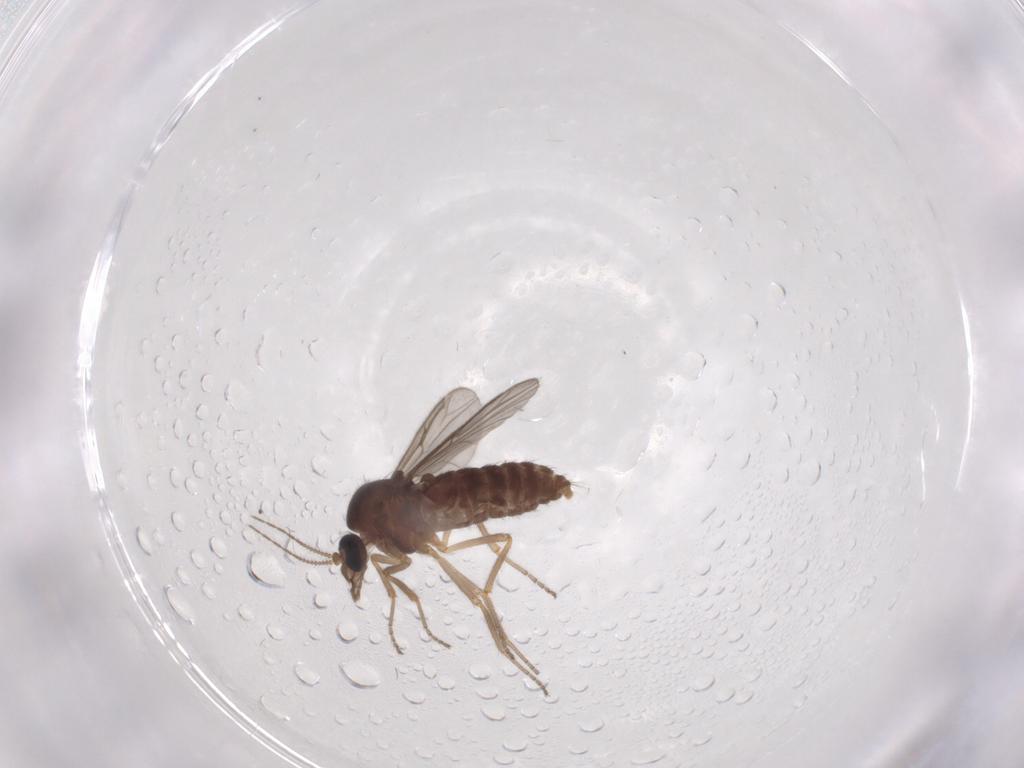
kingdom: Animalia
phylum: Arthropoda
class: Insecta
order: Diptera
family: Ceratopogonidae
